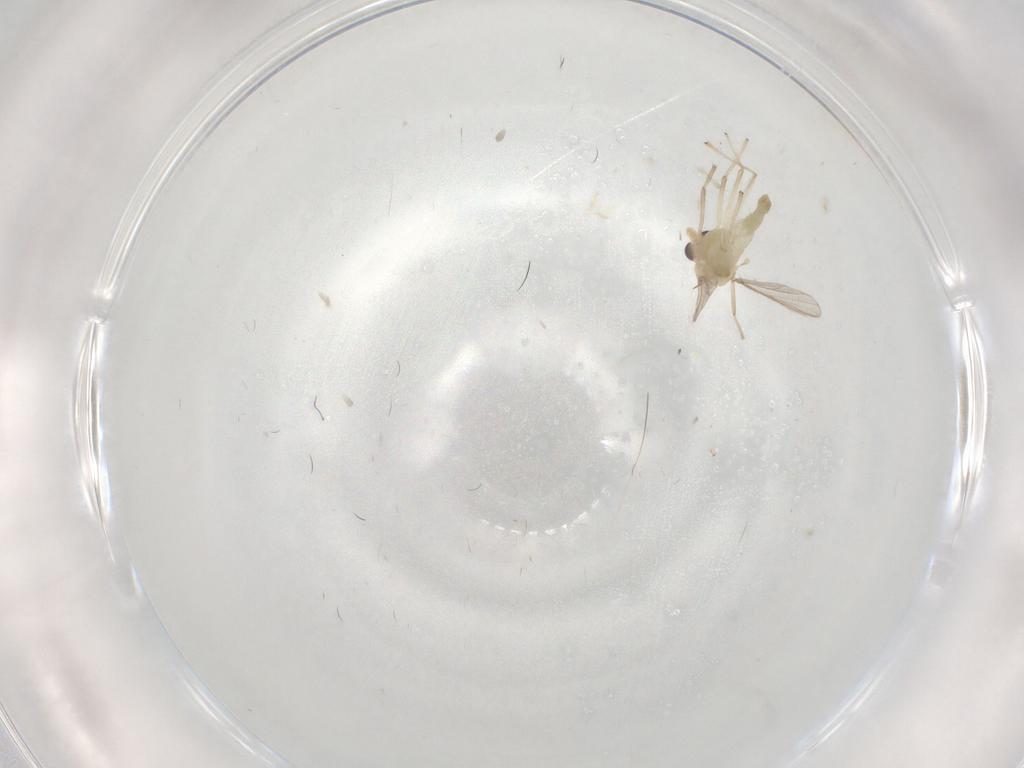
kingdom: Animalia
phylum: Arthropoda
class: Insecta
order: Diptera
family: Chironomidae
